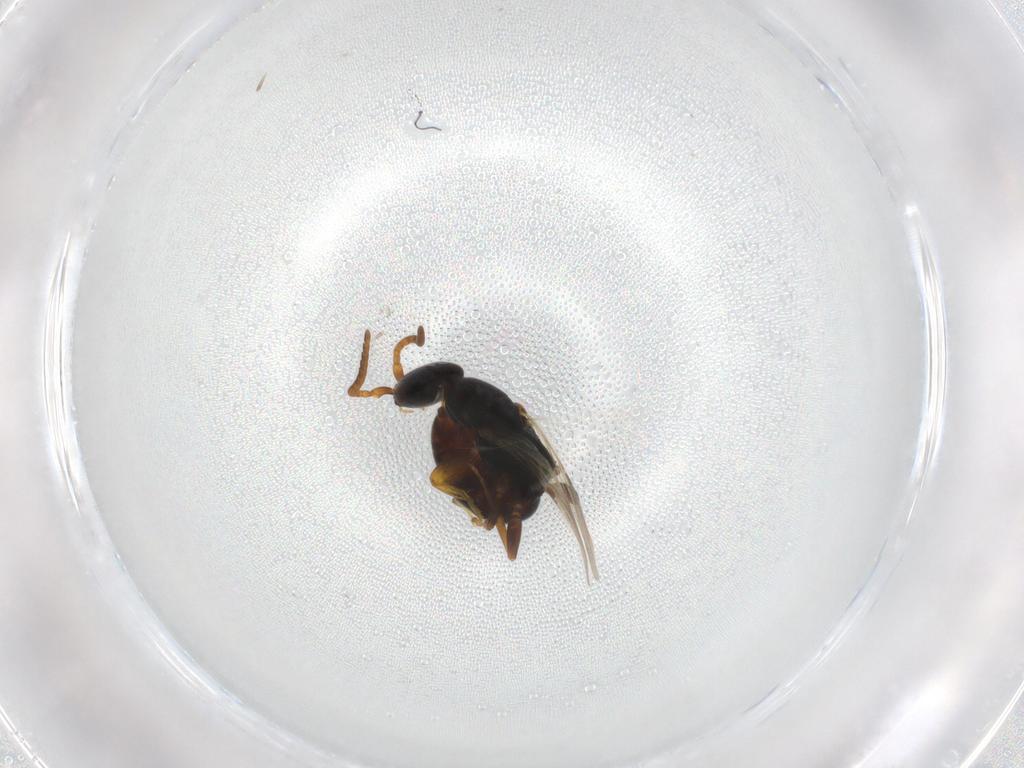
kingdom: Animalia
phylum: Arthropoda
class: Insecta
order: Hymenoptera
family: Bethylidae
